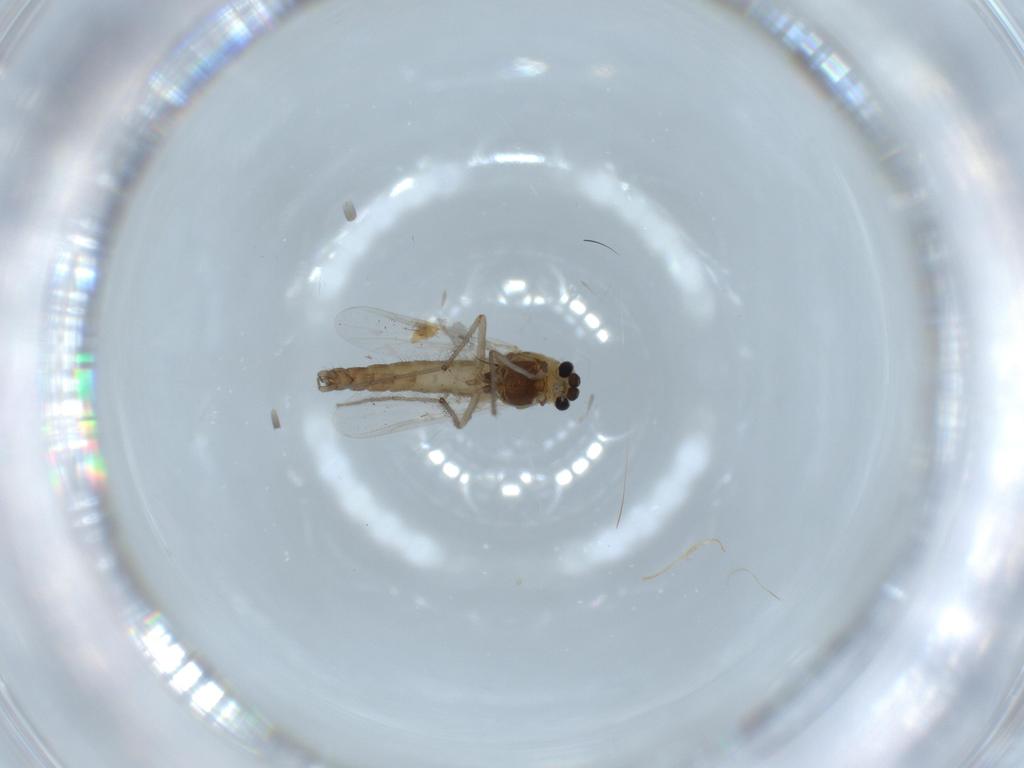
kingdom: Animalia
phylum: Arthropoda
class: Insecta
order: Diptera
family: Chironomidae
